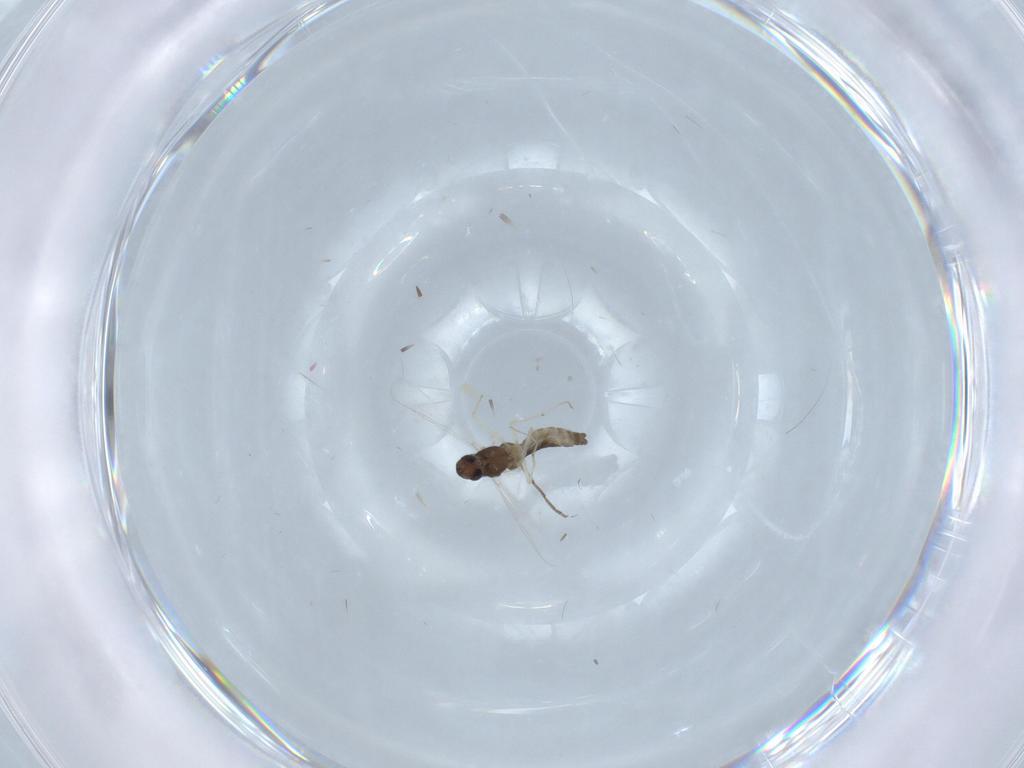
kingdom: Animalia
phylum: Arthropoda
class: Insecta
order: Diptera
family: Chironomidae
